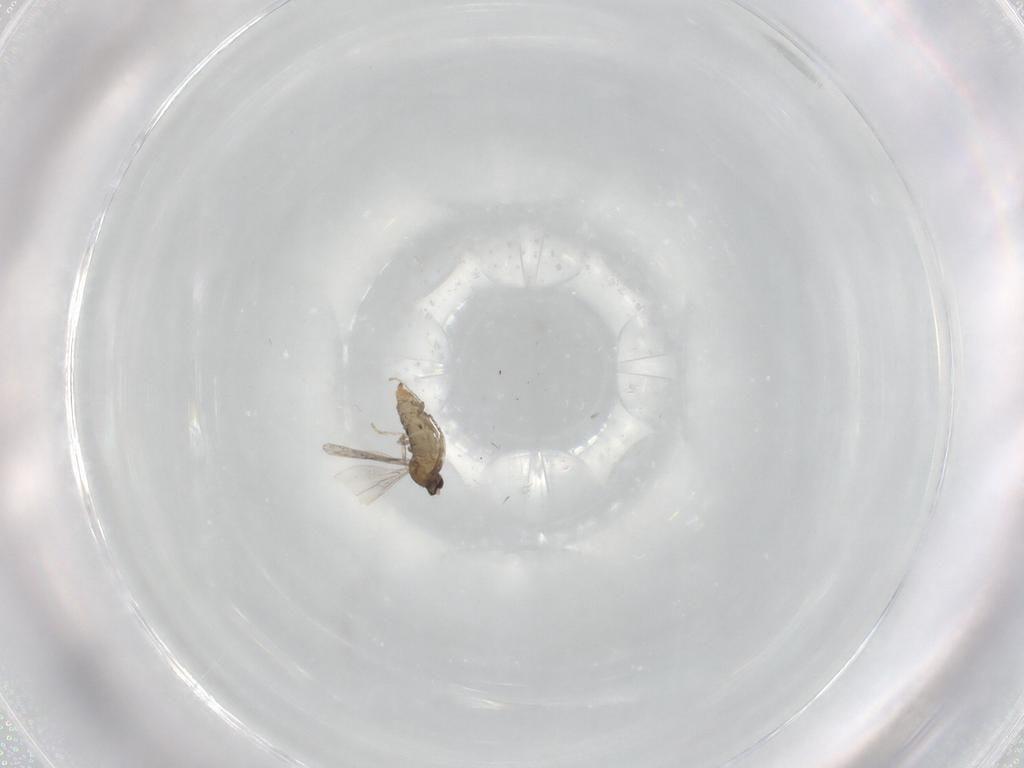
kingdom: Animalia
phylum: Arthropoda
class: Insecta
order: Diptera
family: Cecidomyiidae
